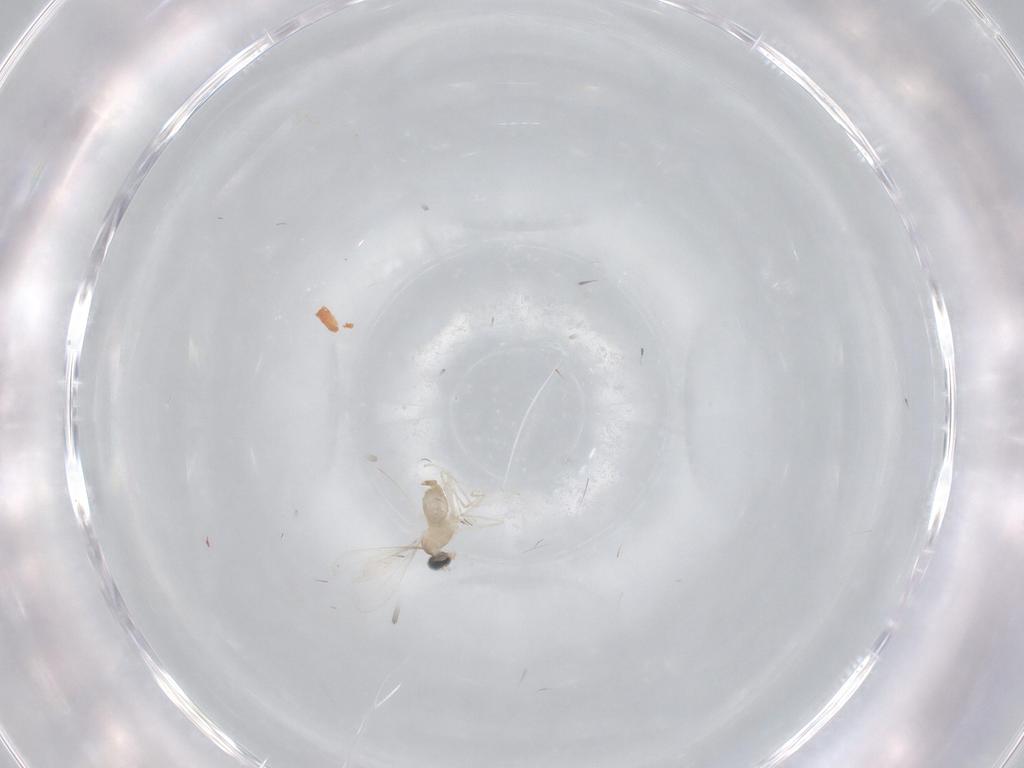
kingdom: Animalia
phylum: Arthropoda
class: Insecta
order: Diptera
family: Cecidomyiidae
